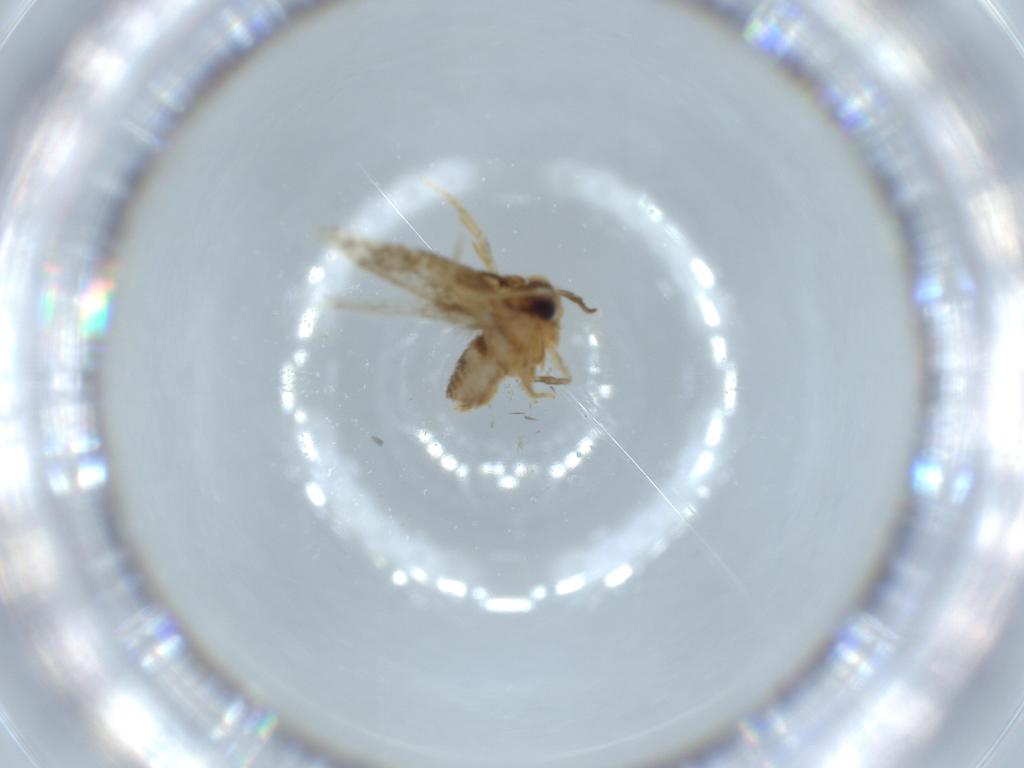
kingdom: Animalia
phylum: Arthropoda
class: Insecta
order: Lepidoptera
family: Nepticulidae
